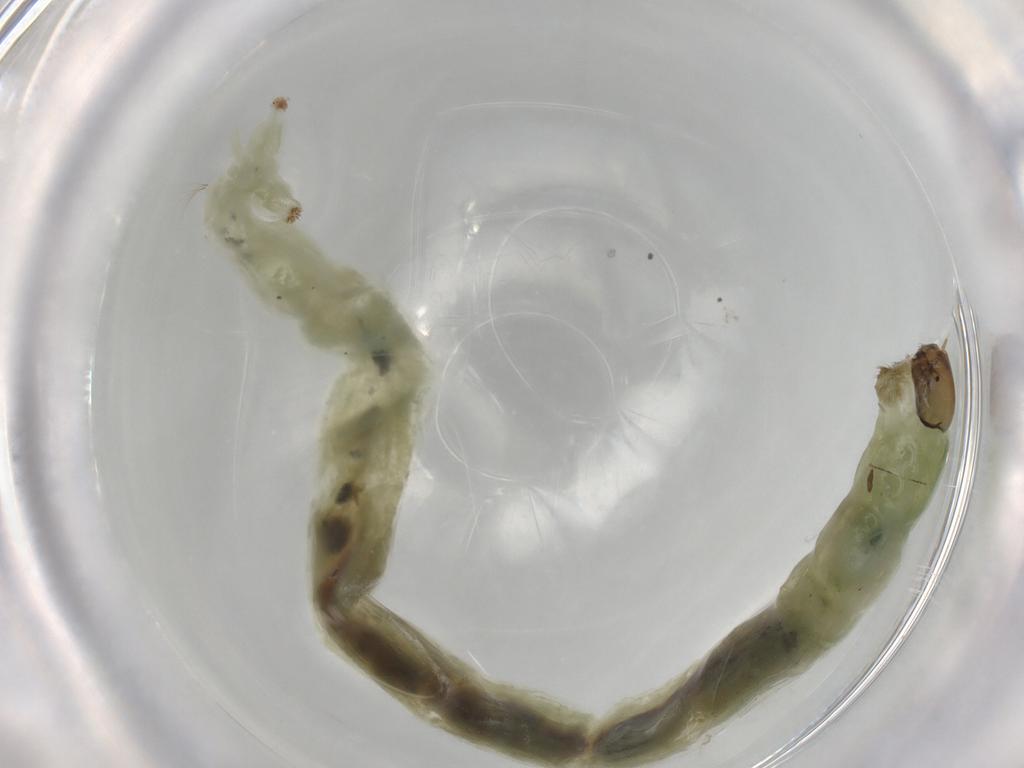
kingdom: Animalia
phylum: Arthropoda
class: Insecta
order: Diptera
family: Chironomidae
